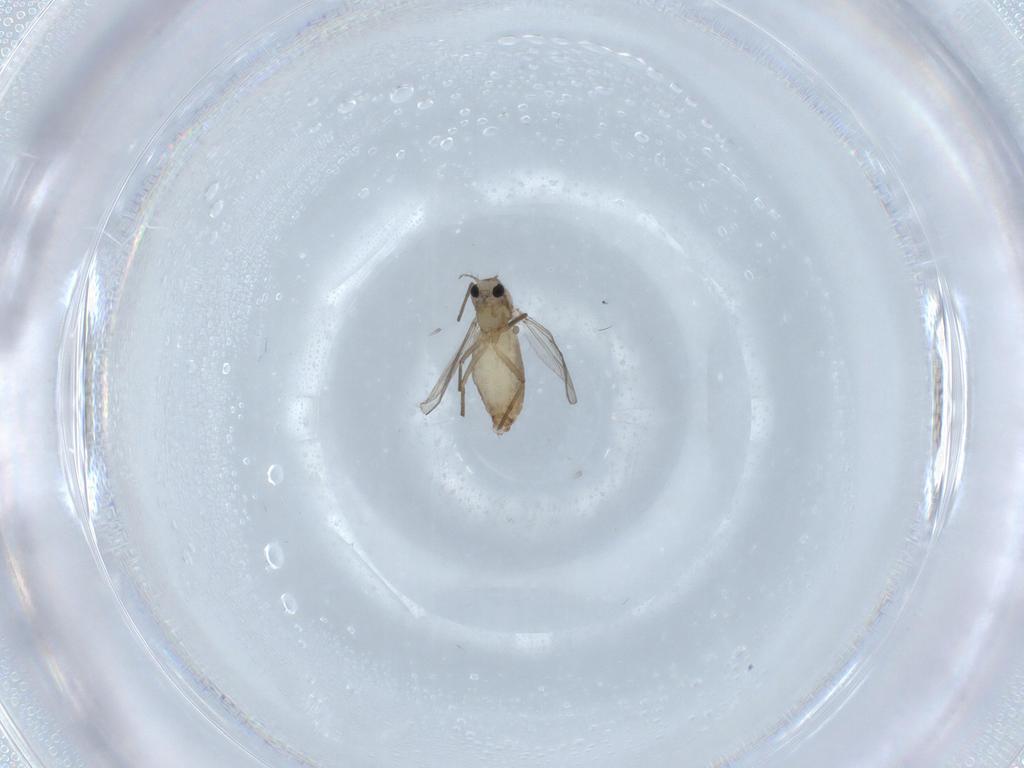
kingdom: Animalia
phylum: Arthropoda
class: Insecta
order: Diptera
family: Chironomidae
